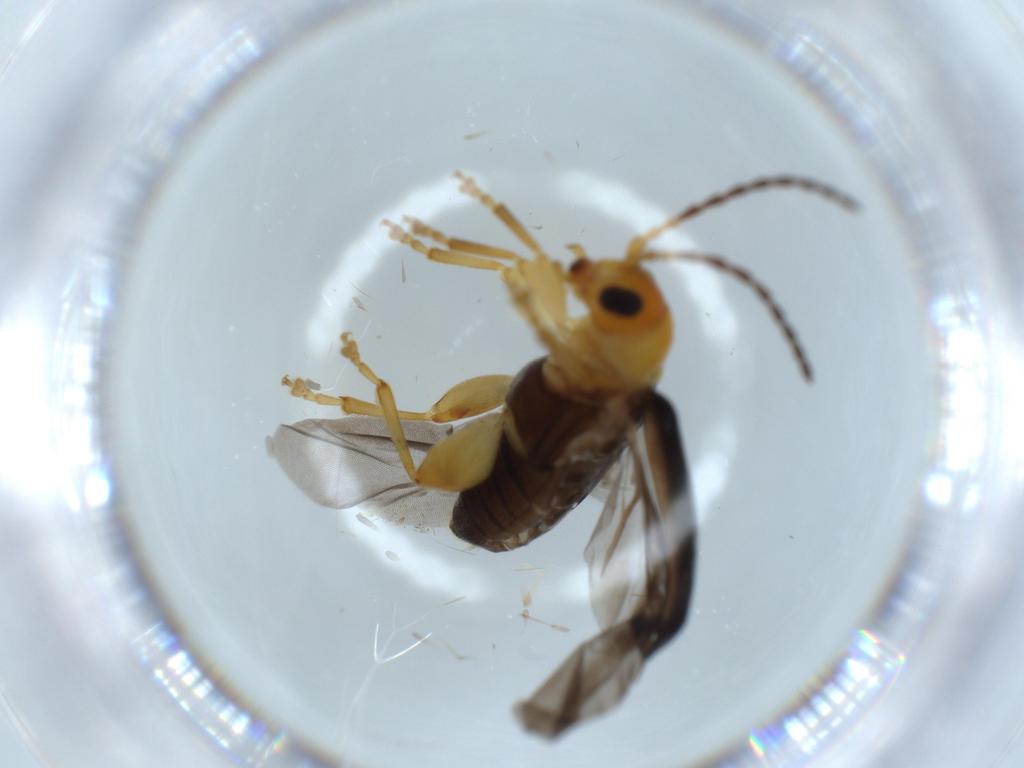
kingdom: Animalia
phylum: Arthropoda
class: Insecta
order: Coleoptera
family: Chrysomelidae
